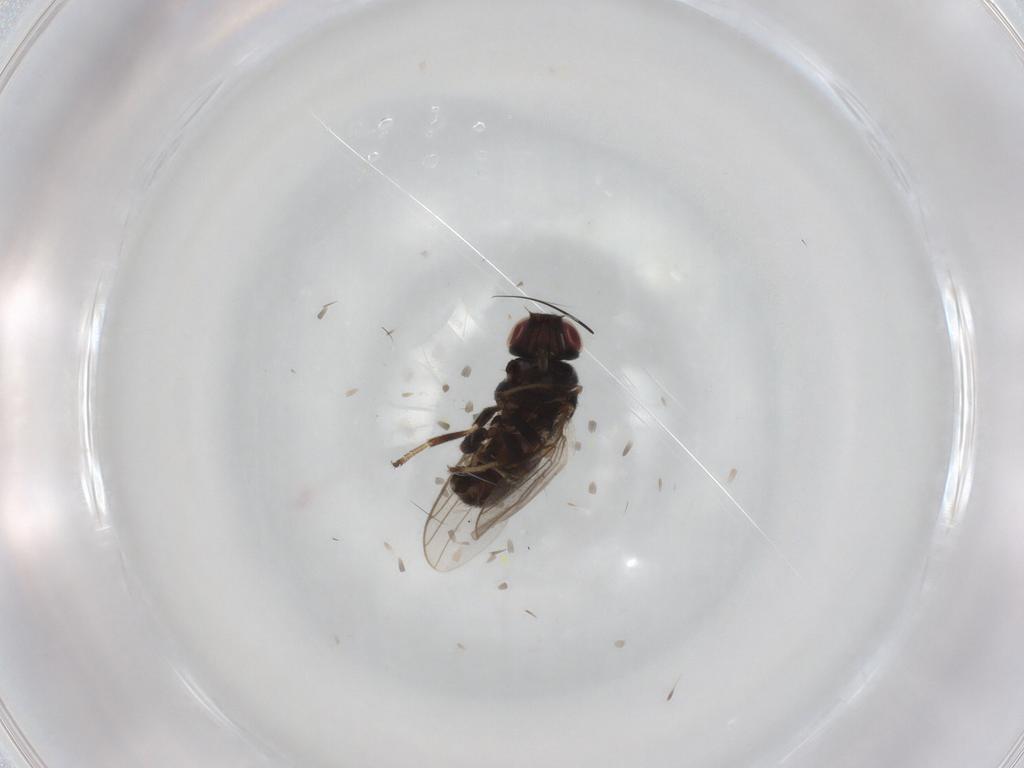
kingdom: Animalia
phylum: Arthropoda
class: Insecta
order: Diptera
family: Chloropidae
